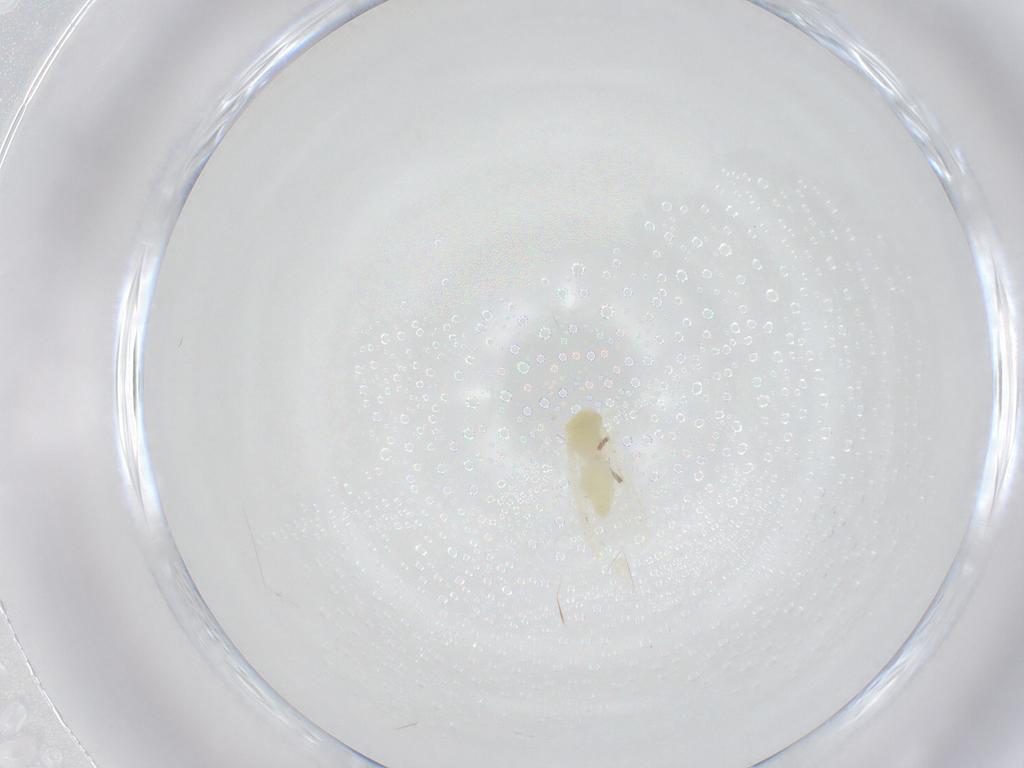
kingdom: Animalia
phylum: Arthropoda
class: Insecta
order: Hemiptera
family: Aleyrodidae
